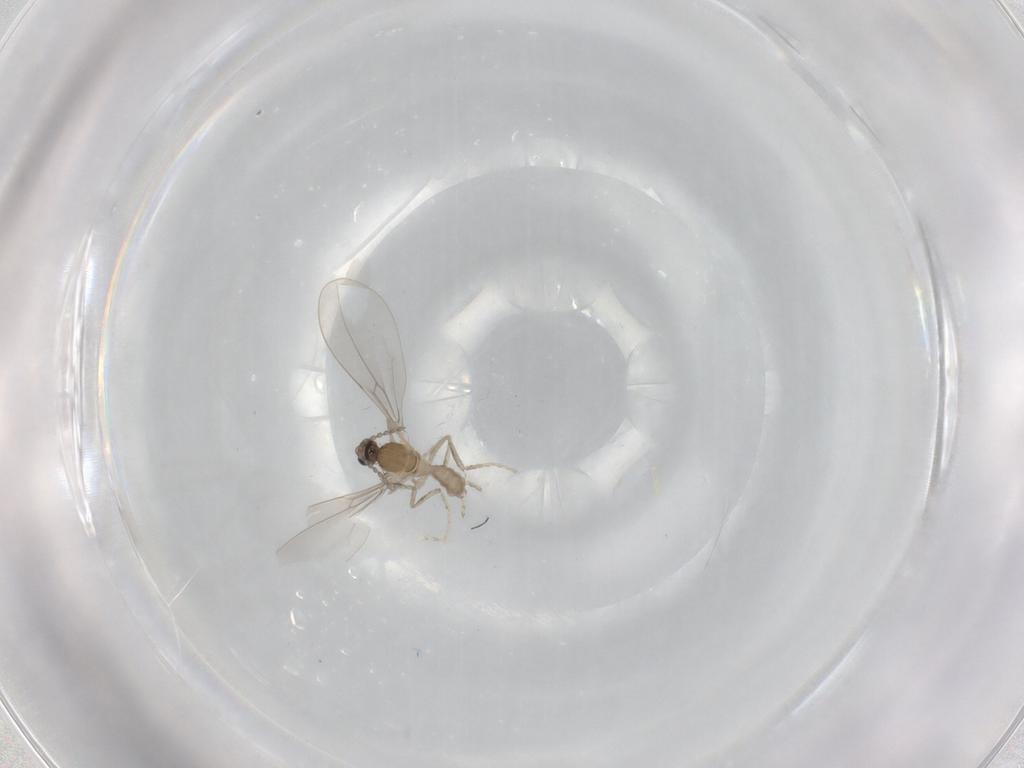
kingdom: Animalia
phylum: Arthropoda
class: Insecta
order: Diptera
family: Cecidomyiidae
